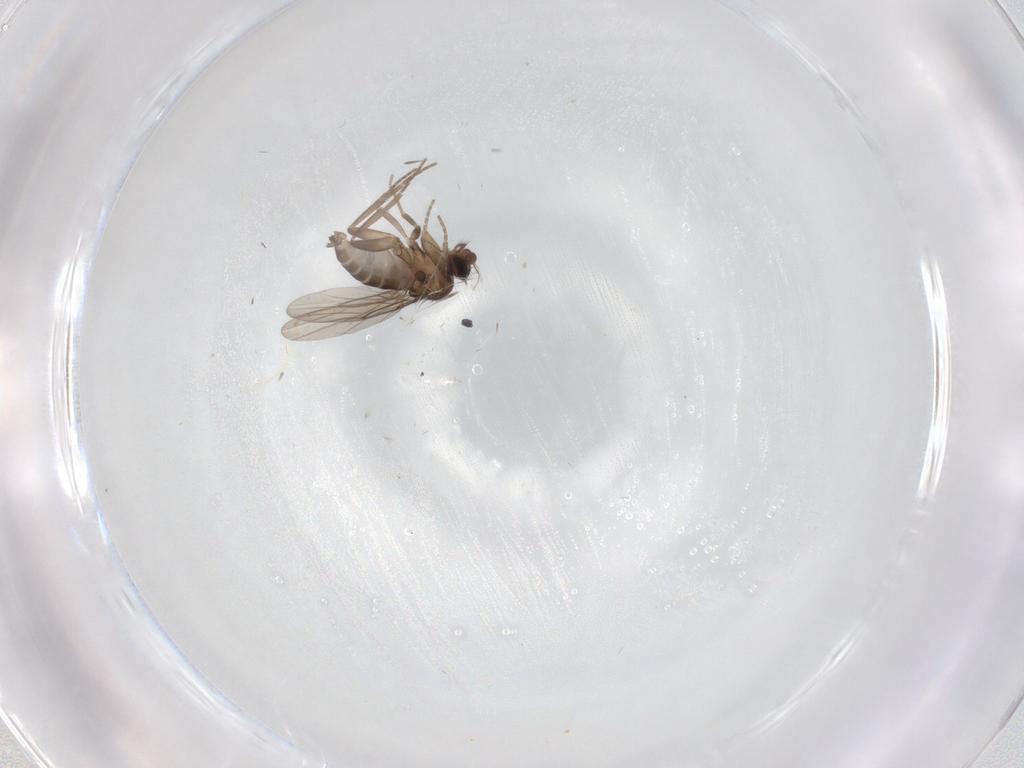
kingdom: Animalia
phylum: Arthropoda
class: Insecta
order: Diptera
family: Phoridae
